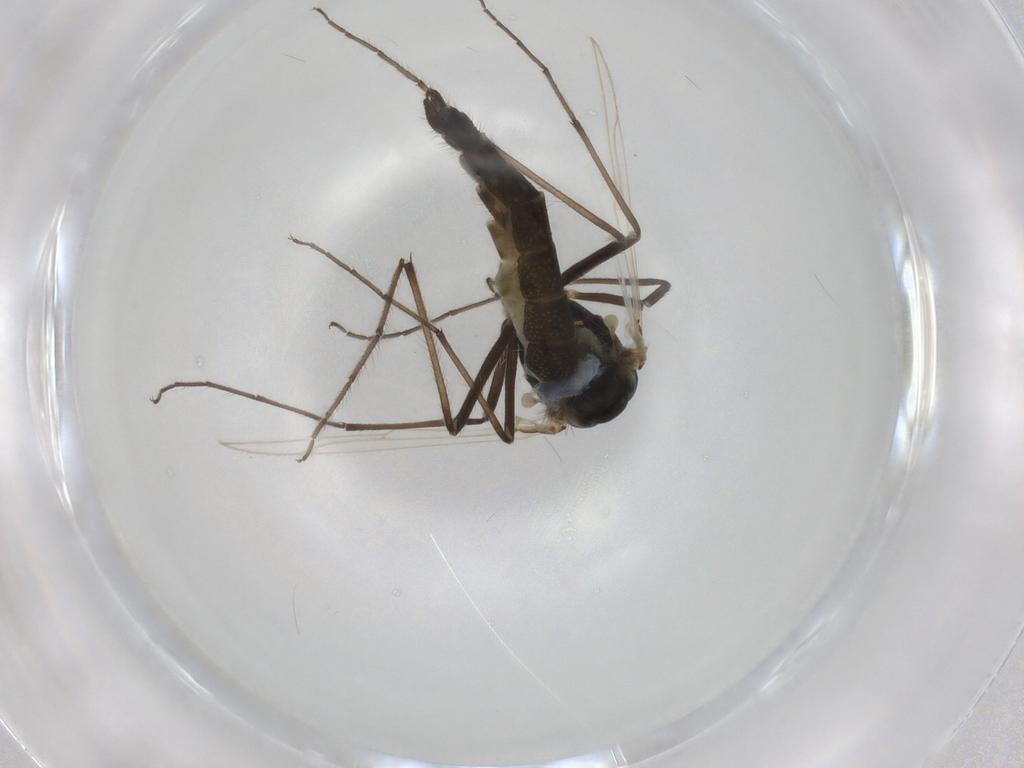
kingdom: Animalia
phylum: Arthropoda
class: Insecta
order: Diptera
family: Chironomidae
